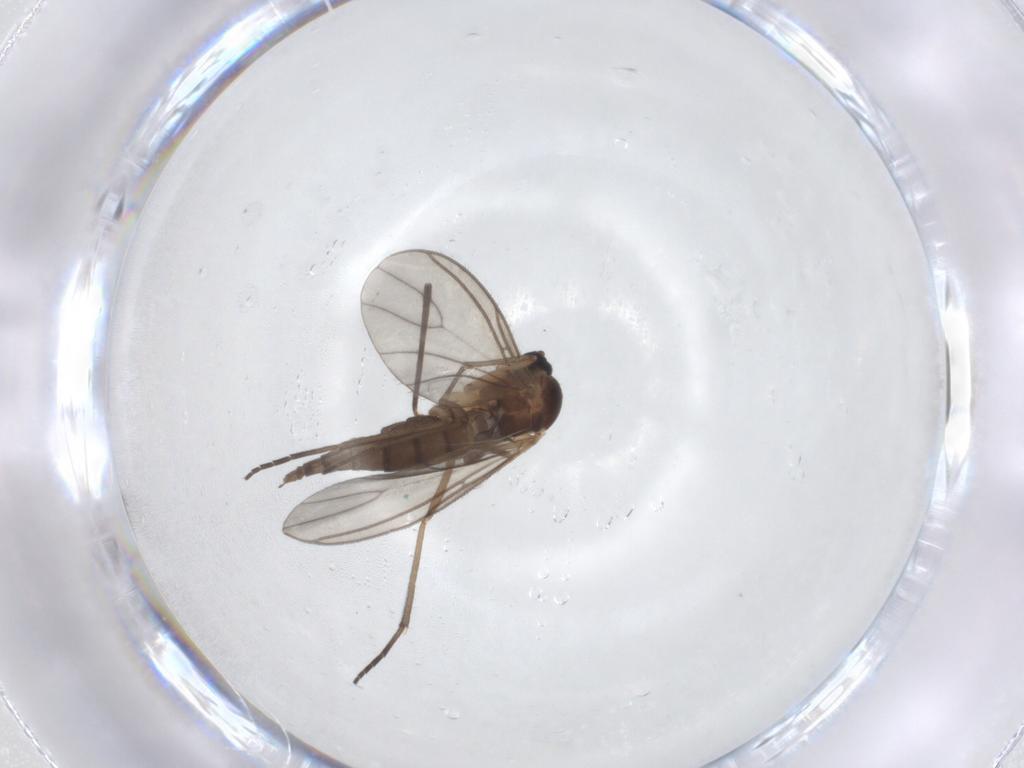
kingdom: Animalia
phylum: Arthropoda
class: Insecta
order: Diptera
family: Sciaridae
